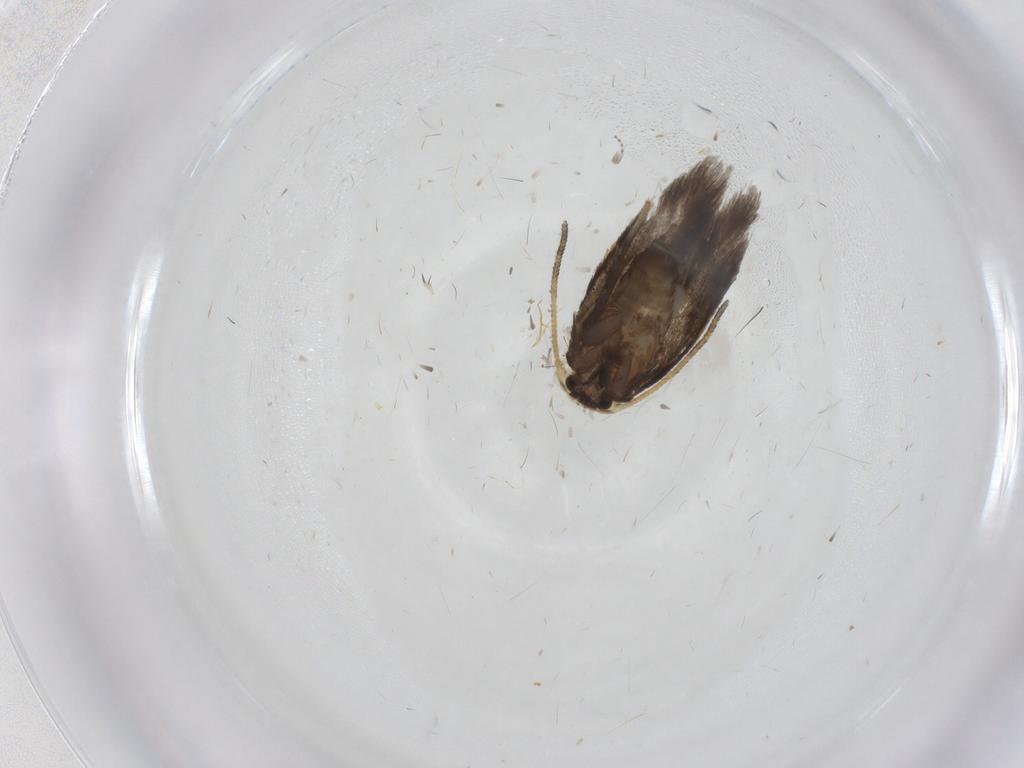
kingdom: Animalia
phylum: Arthropoda
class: Insecta
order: Lepidoptera
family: Nepticulidae
